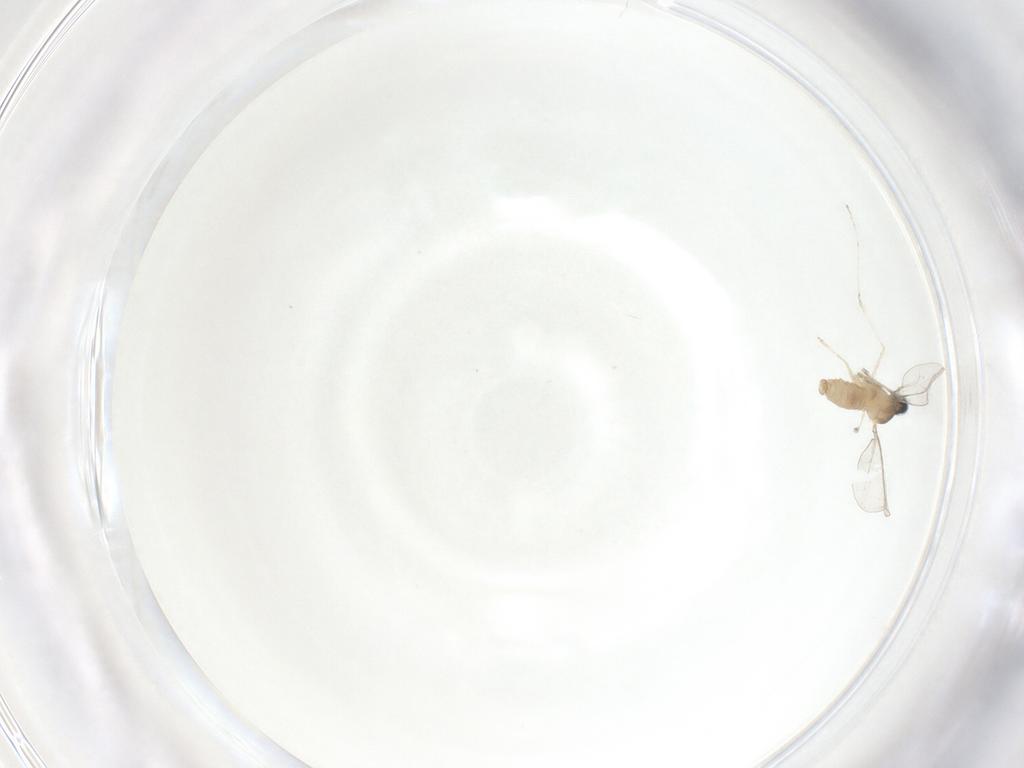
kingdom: Animalia
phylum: Arthropoda
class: Insecta
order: Diptera
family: Cecidomyiidae
